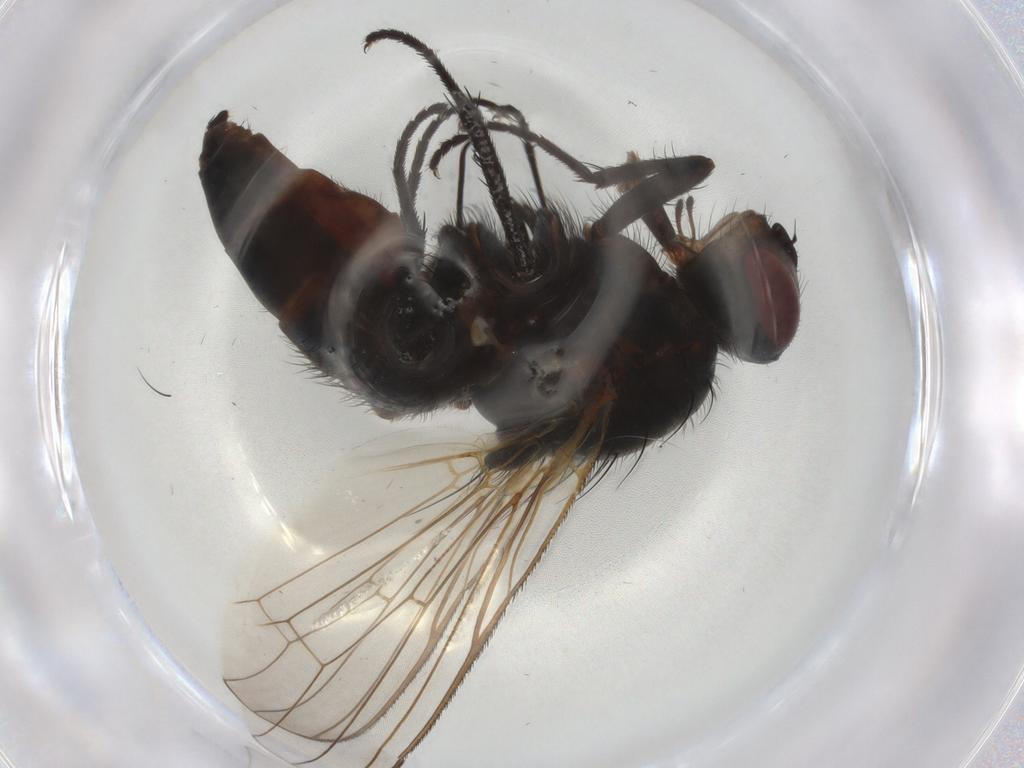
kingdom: Animalia
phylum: Arthropoda
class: Insecta
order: Diptera
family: Anthomyiidae
